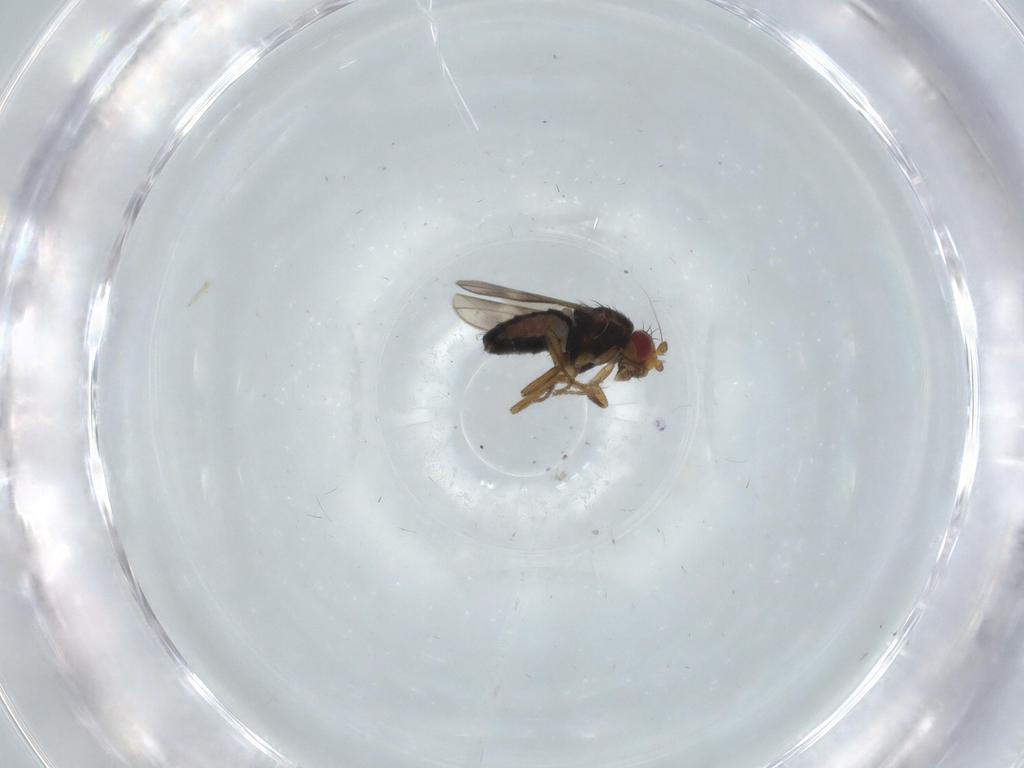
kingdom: Animalia
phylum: Arthropoda
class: Insecta
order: Diptera
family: Sphaeroceridae
